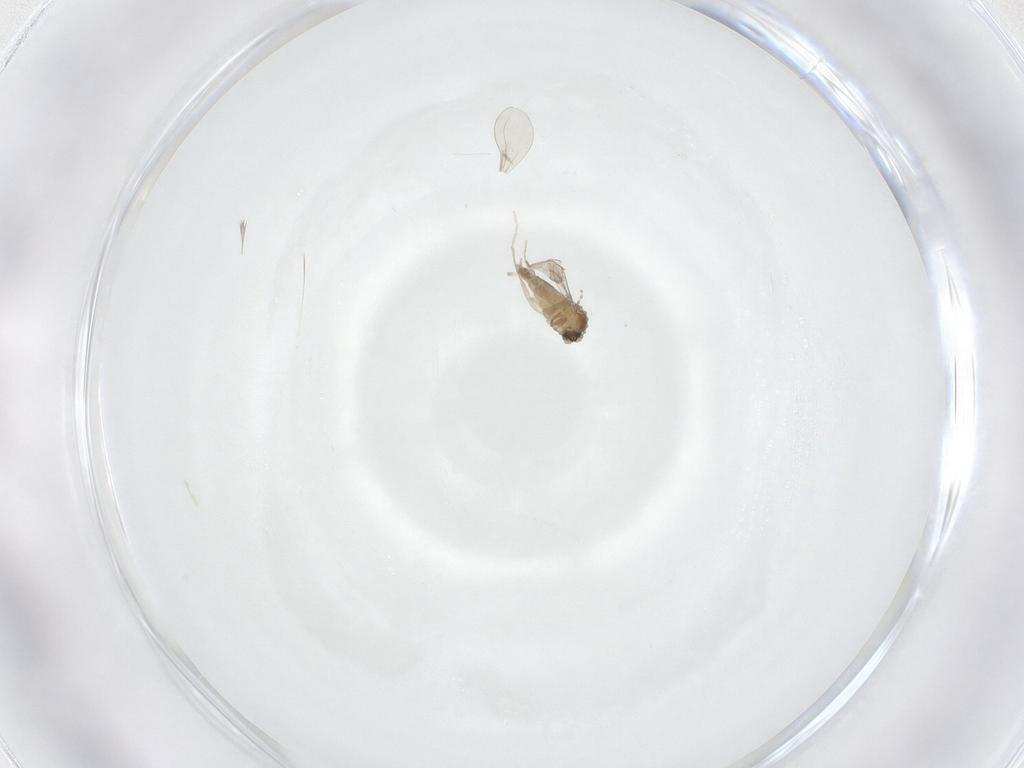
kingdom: Animalia
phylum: Arthropoda
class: Insecta
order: Diptera
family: Cecidomyiidae
